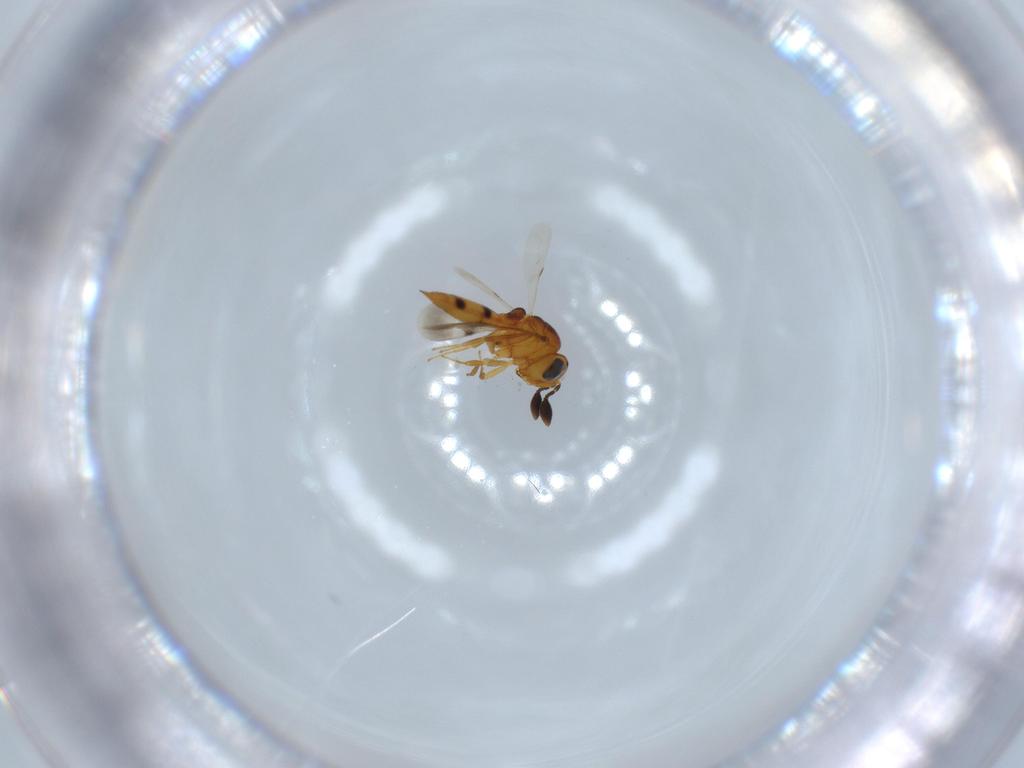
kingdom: Animalia
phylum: Arthropoda
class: Insecta
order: Hymenoptera
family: Scelionidae
